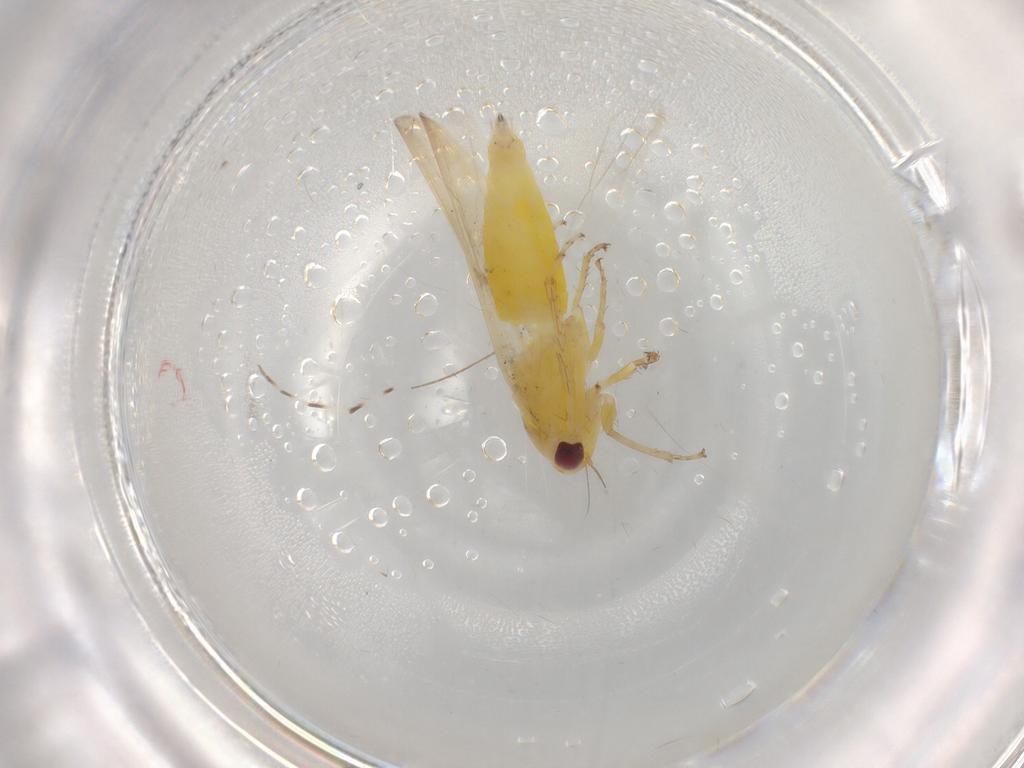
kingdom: Animalia
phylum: Arthropoda
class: Insecta
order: Hemiptera
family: Cicadellidae
